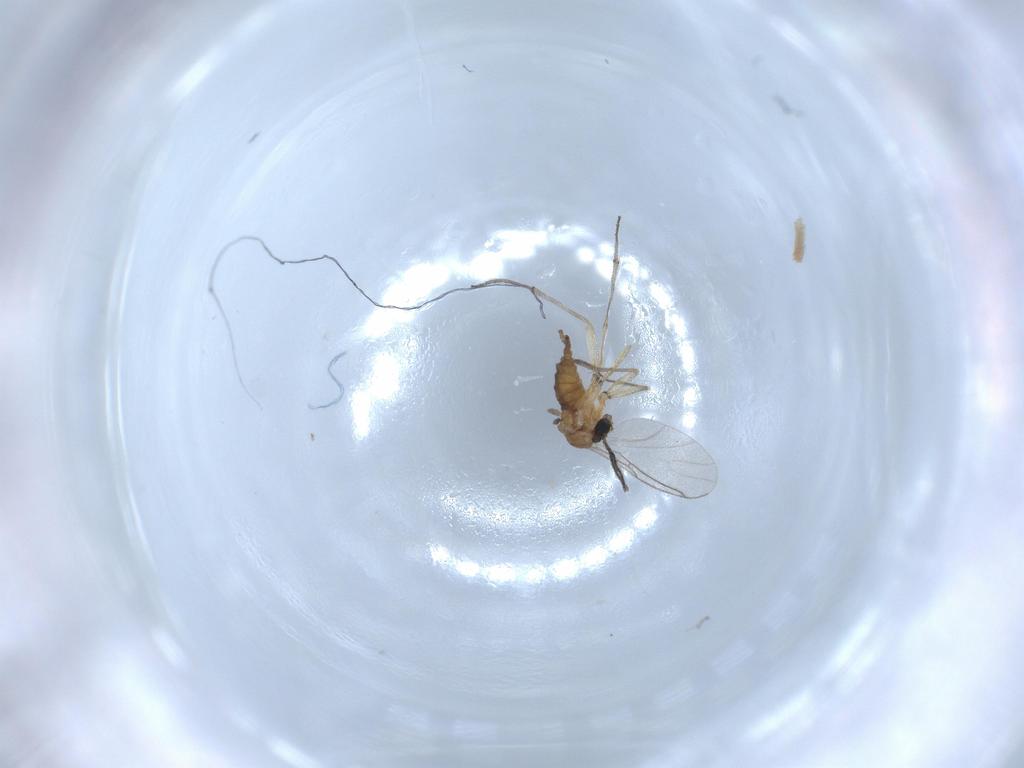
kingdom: Animalia
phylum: Arthropoda
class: Insecta
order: Diptera
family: Sciaridae
